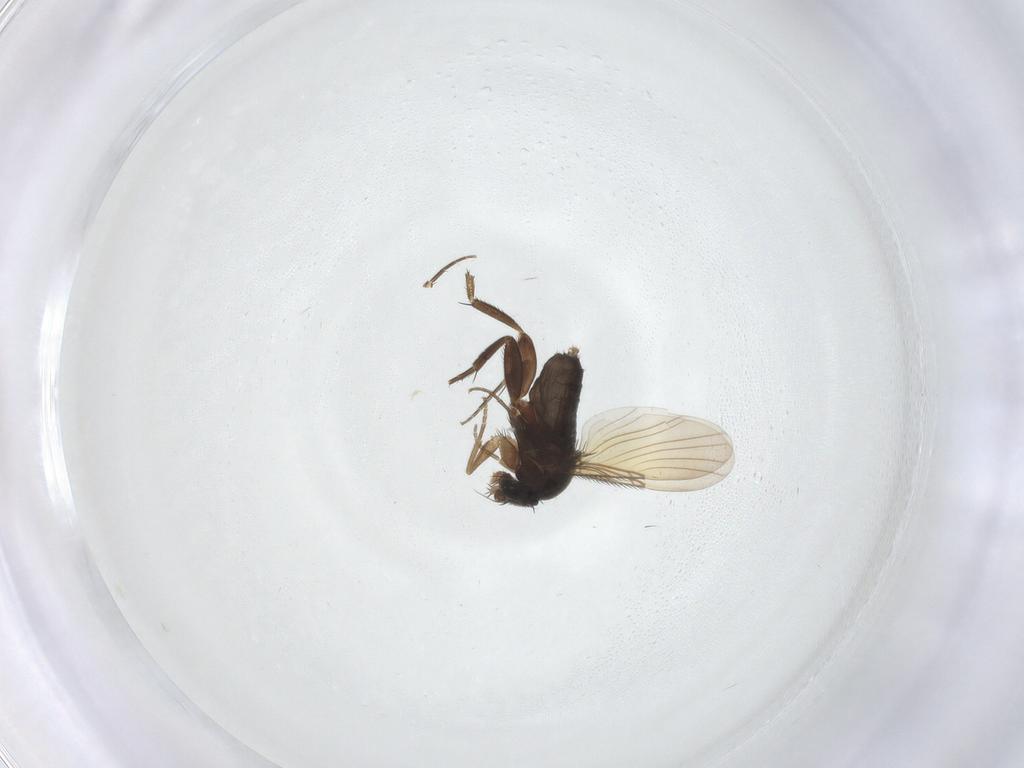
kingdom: Animalia
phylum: Arthropoda
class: Insecta
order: Diptera
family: Phoridae
